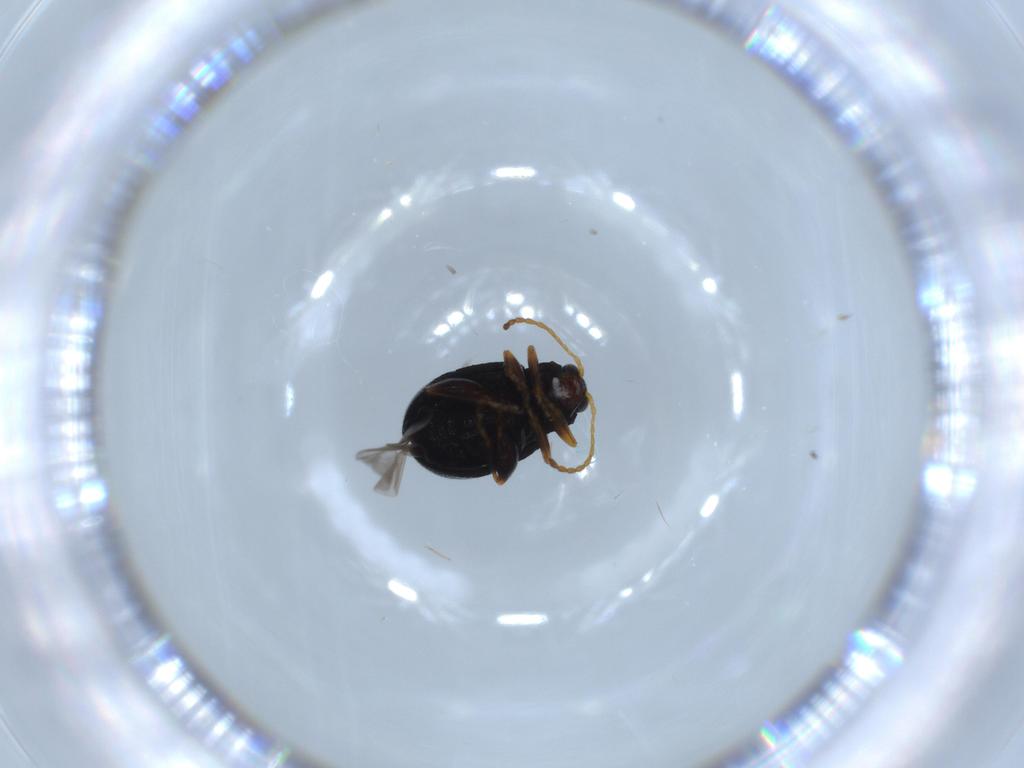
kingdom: Animalia
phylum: Arthropoda
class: Insecta
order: Coleoptera
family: Chrysomelidae
